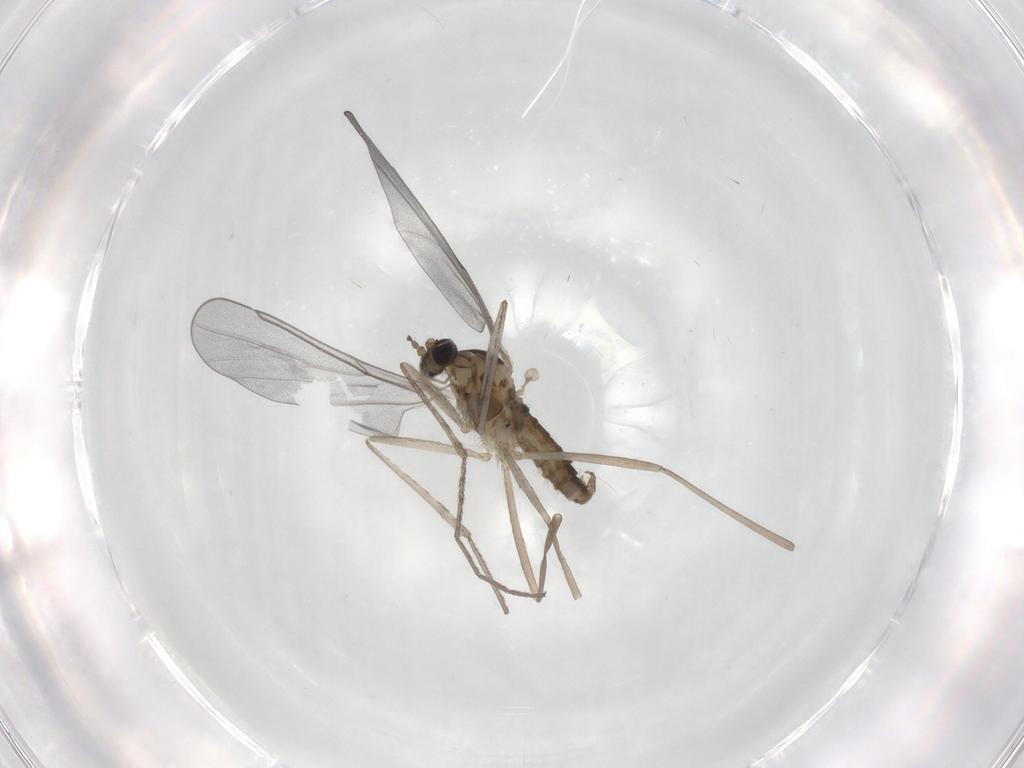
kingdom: Animalia
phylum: Arthropoda
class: Insecta
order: Diptera
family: Cecidomyiidae
